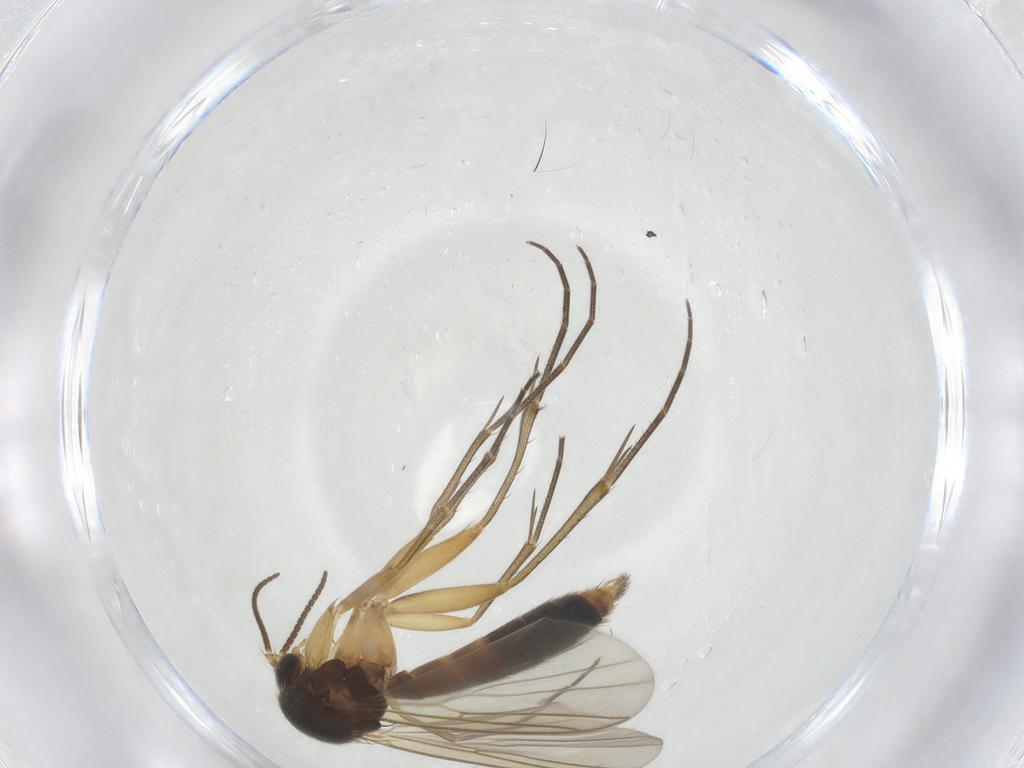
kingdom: Animalia
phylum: Arthropoda
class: Insecta
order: Diptera
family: Mycetophilidae
